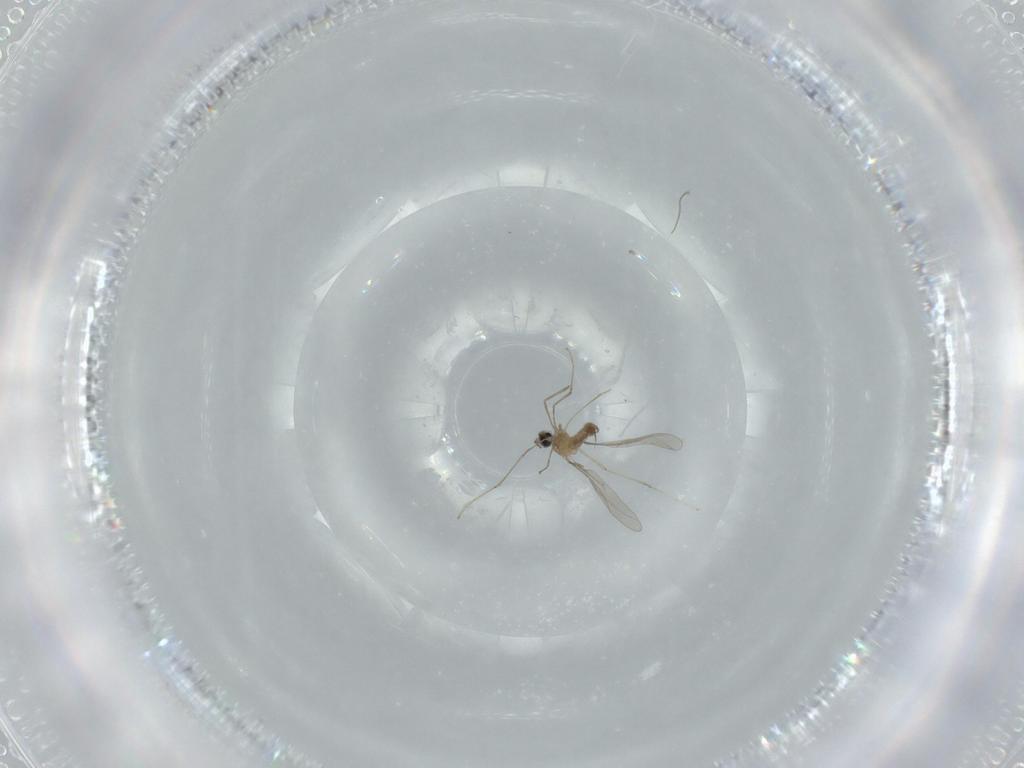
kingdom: Animalia
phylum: Arthropoda
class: Insecta
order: Diptera
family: Cecidomyiidae
